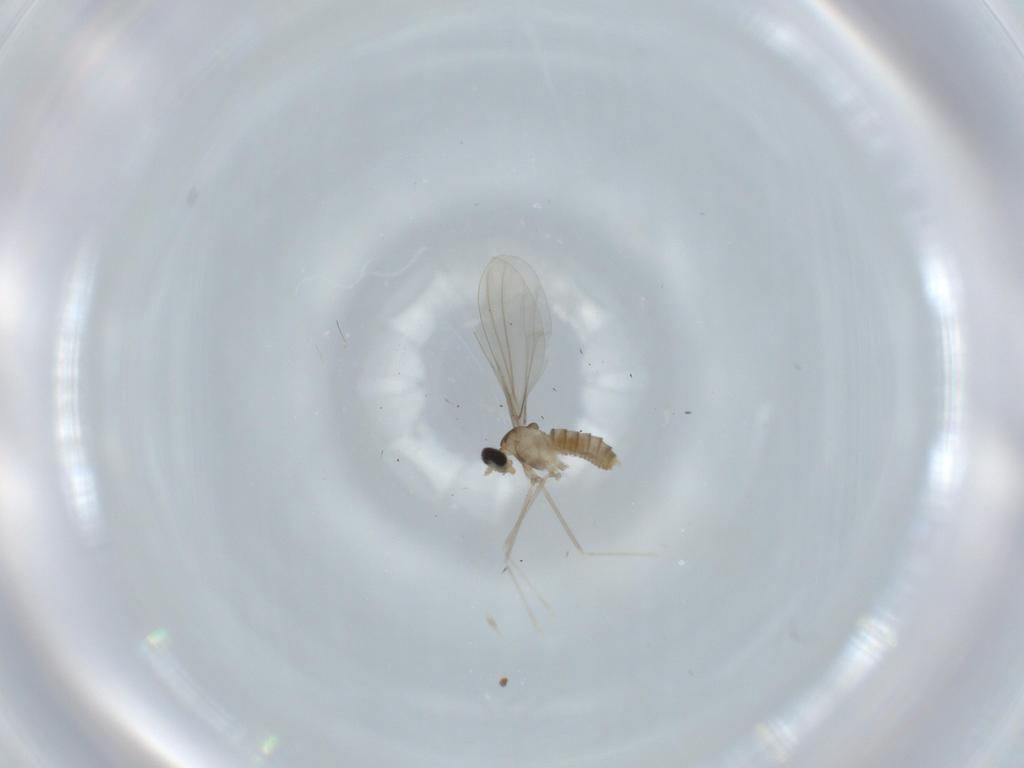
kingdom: Animalia
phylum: Arthropoda
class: Insecta
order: Diptera
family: Cecidomyiidae
